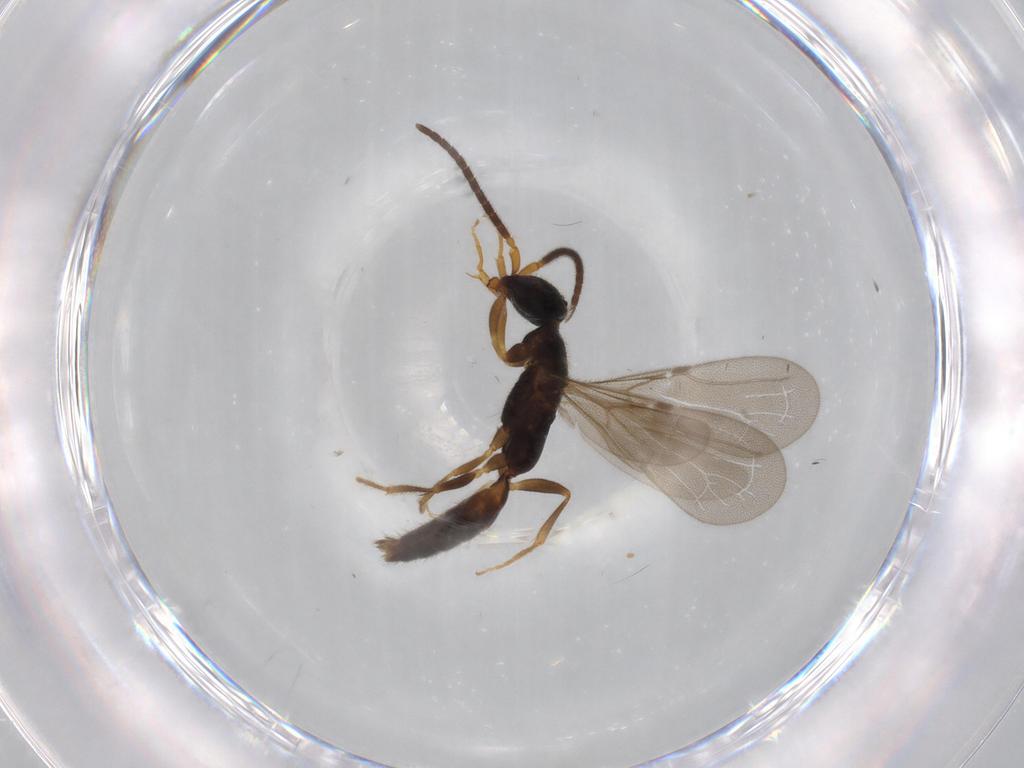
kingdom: Animalia
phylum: Arthropoda
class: Insecta
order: Hymenoptera
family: Bethylidae
